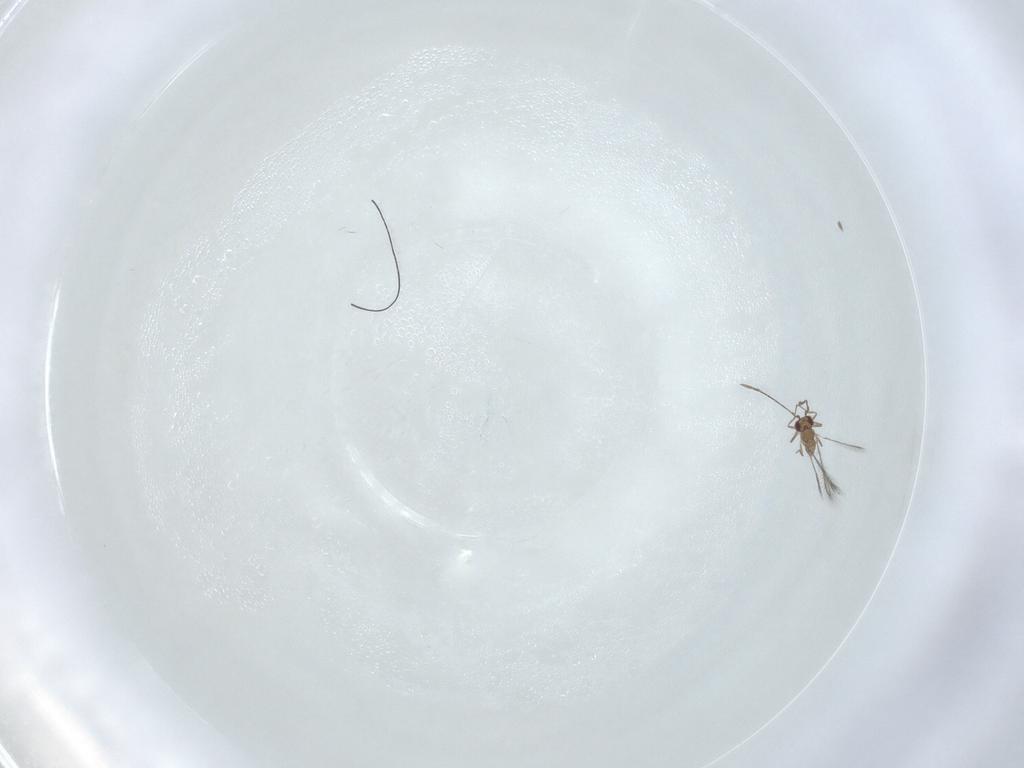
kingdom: Animalia
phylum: Arthropoda
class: Insecta
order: Hymenoptera
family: Mymaridae
